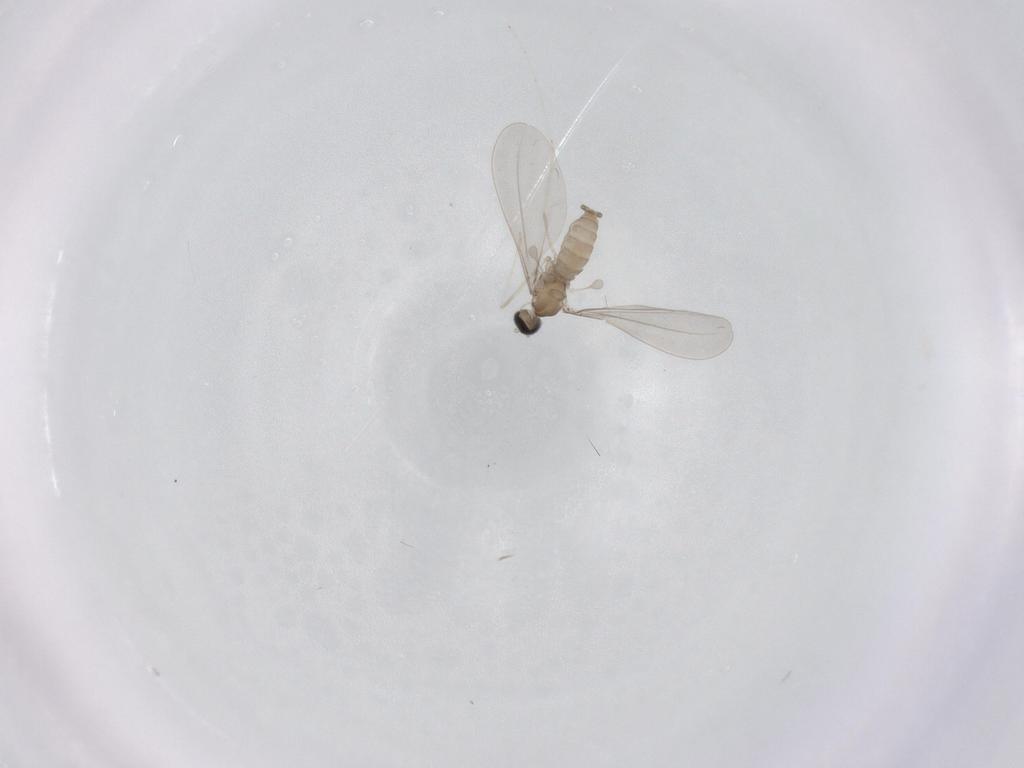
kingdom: Animalia
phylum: Arthropoda
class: Insecta
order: Diptera
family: Cecidomyiidae
